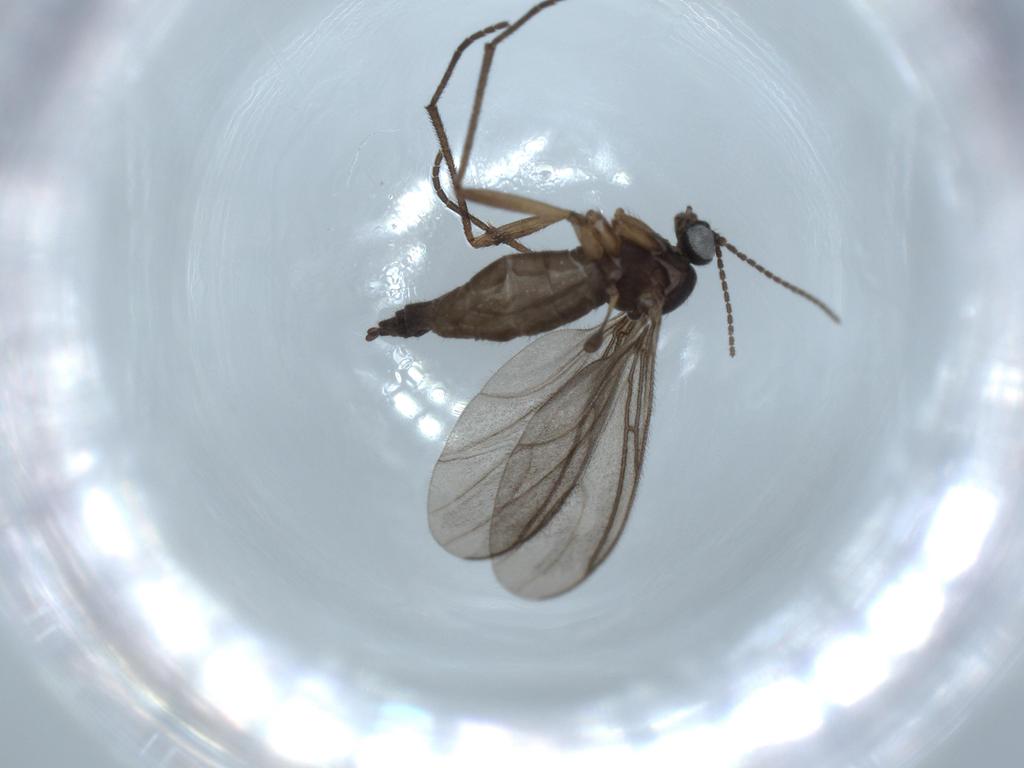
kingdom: Animalia
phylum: Arthropoda
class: Insecta
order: Diptera
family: Sciaridae
